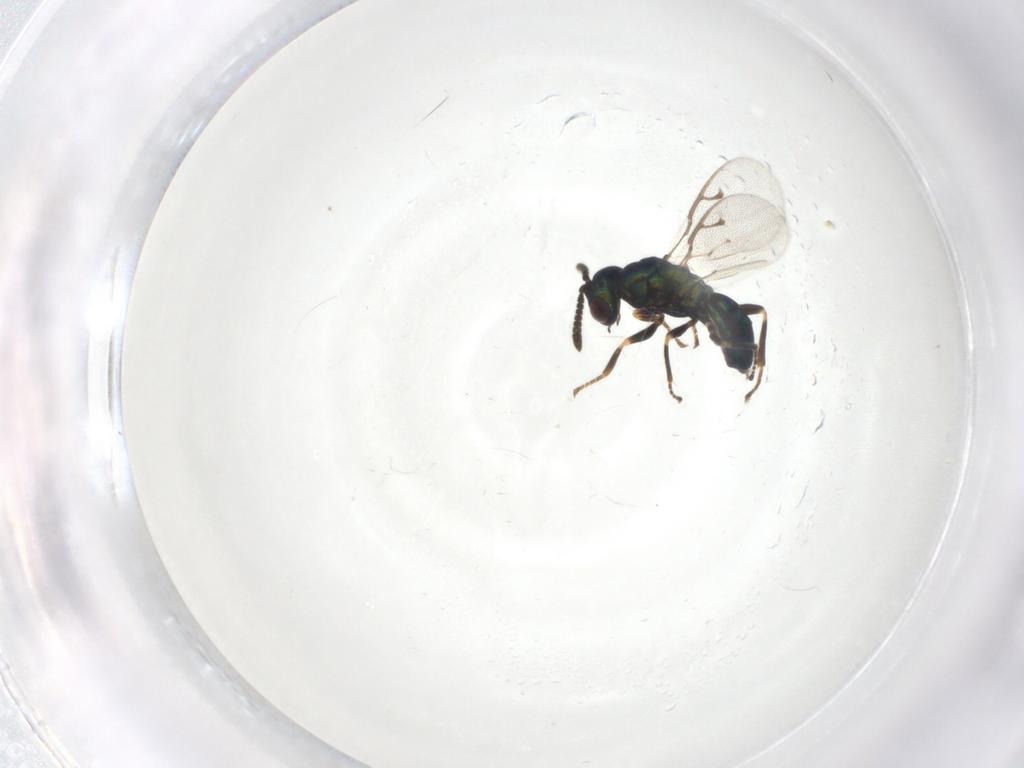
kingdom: Animalia
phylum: Arthropoda
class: Insecta
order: Hymenoptera
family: Pteromalidae
